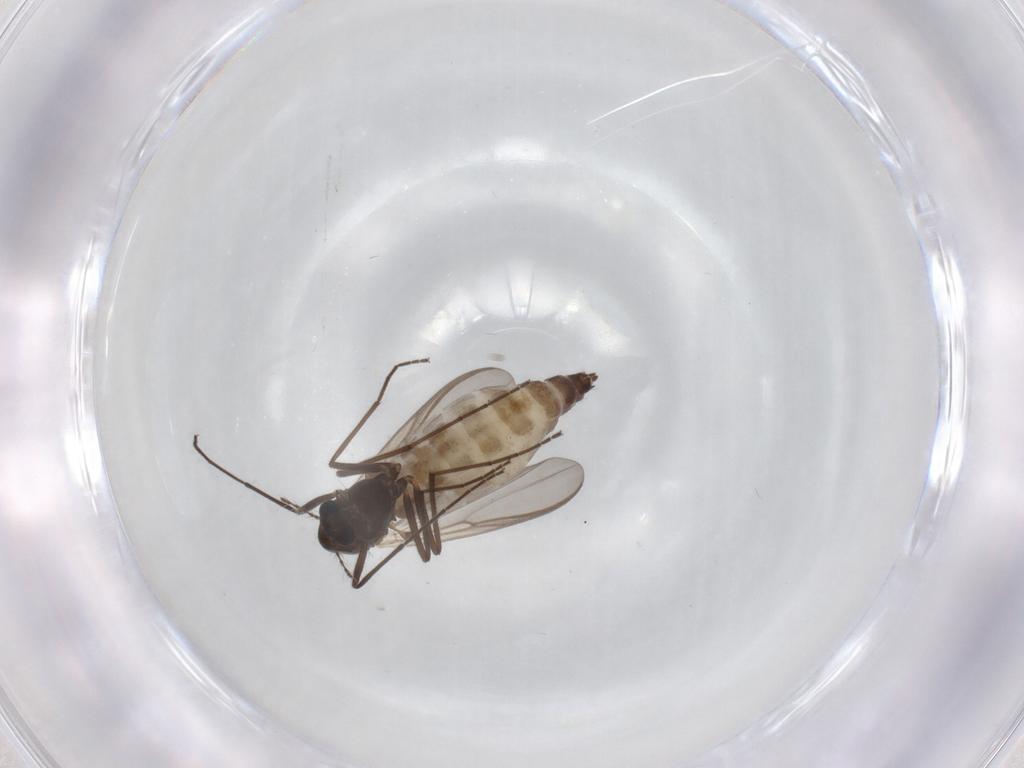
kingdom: Animalia
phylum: Arthropoda
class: Insecta
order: Diptera
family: Chironomidae
